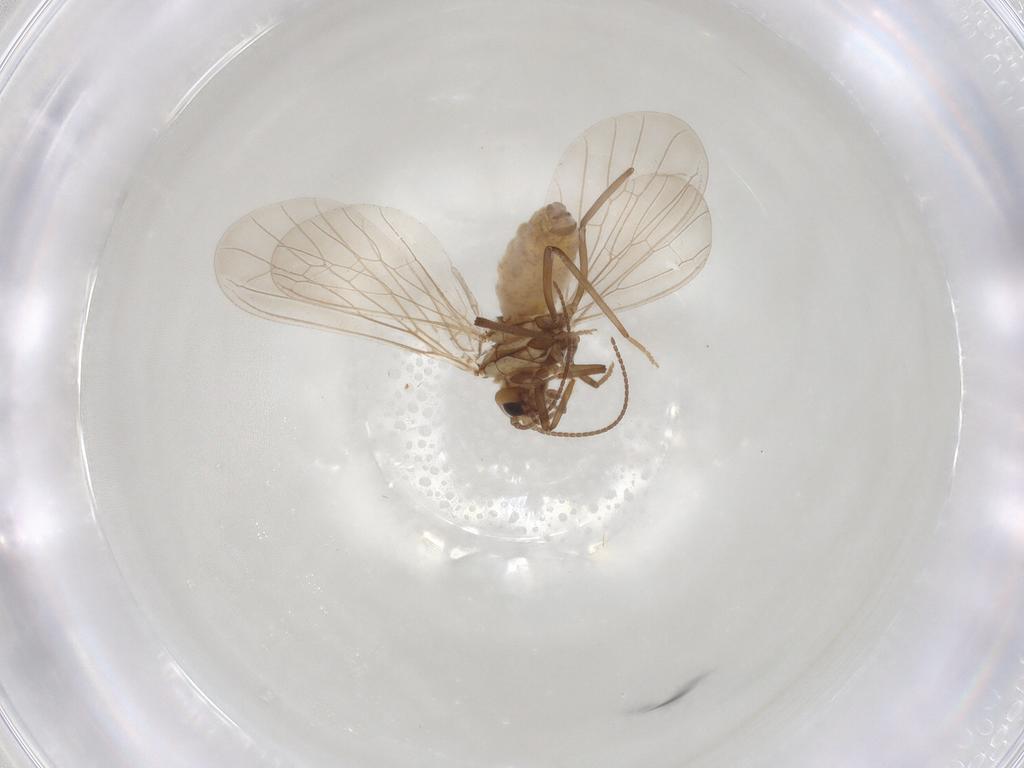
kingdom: Animalia
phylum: Arthropoda
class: Insecta
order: Neuroptera
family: Coniopterygidae
